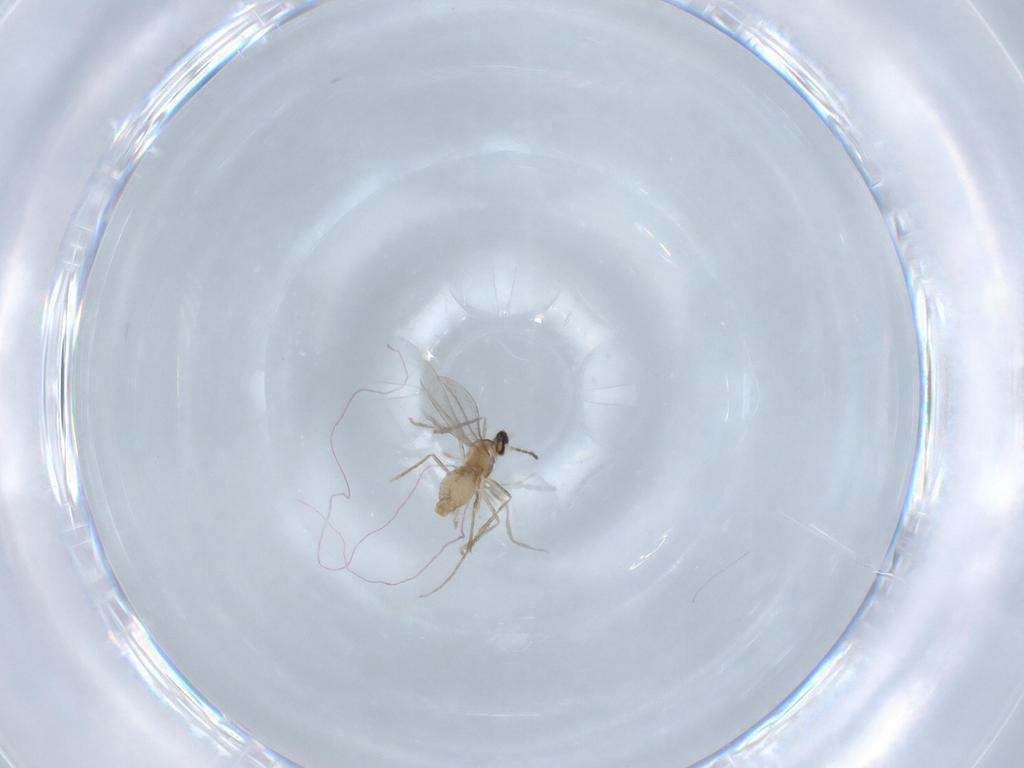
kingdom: Animalia
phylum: Arthropoda
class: Insecta
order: Diptera
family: Cecidomyiidae
